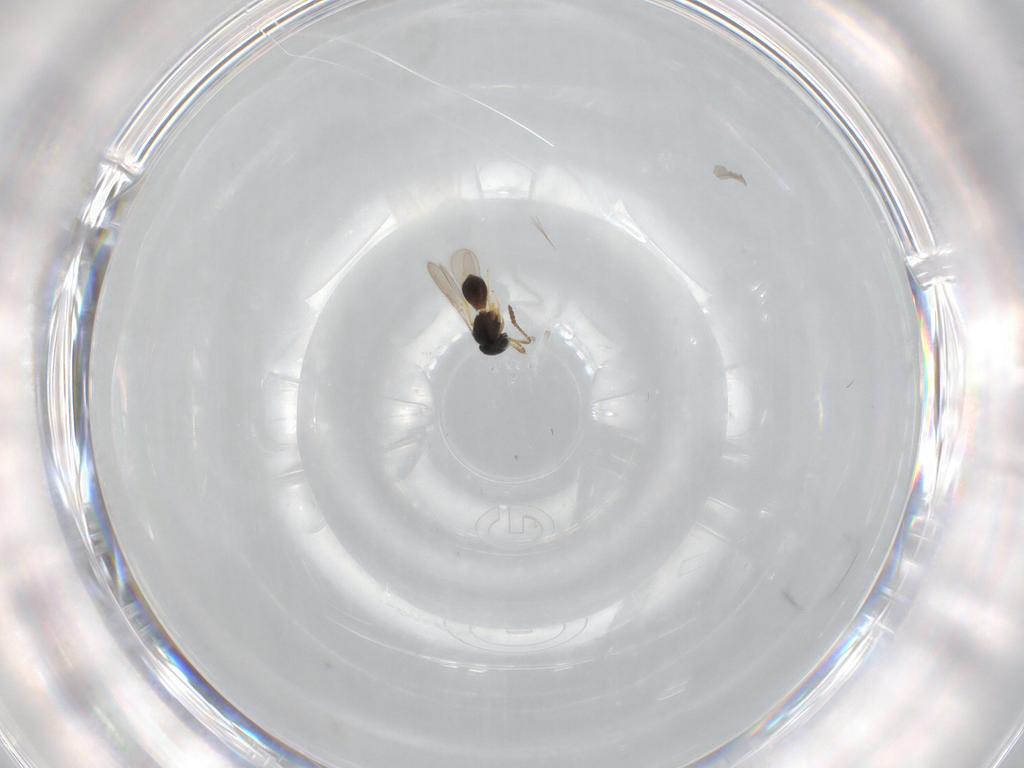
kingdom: Animalia
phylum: Arthropoda
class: Insecta
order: Hymenoptera
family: Scelionidae
